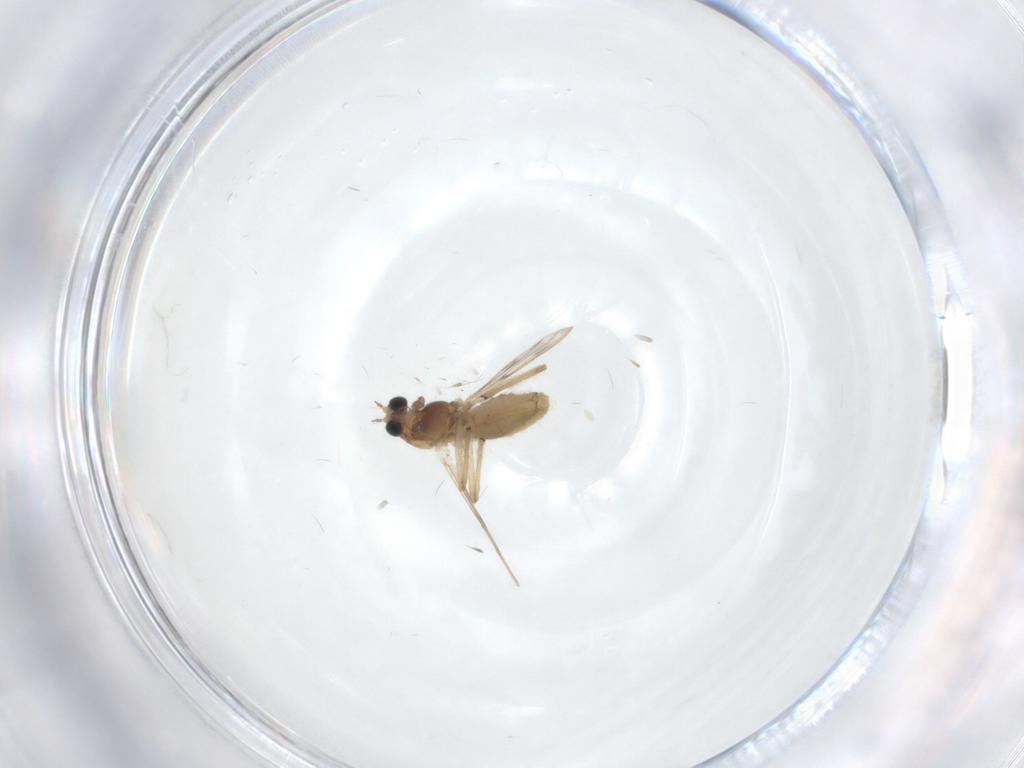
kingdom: Animalia
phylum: Arthropoda
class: Insecta
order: Diptera
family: Chironomidae
